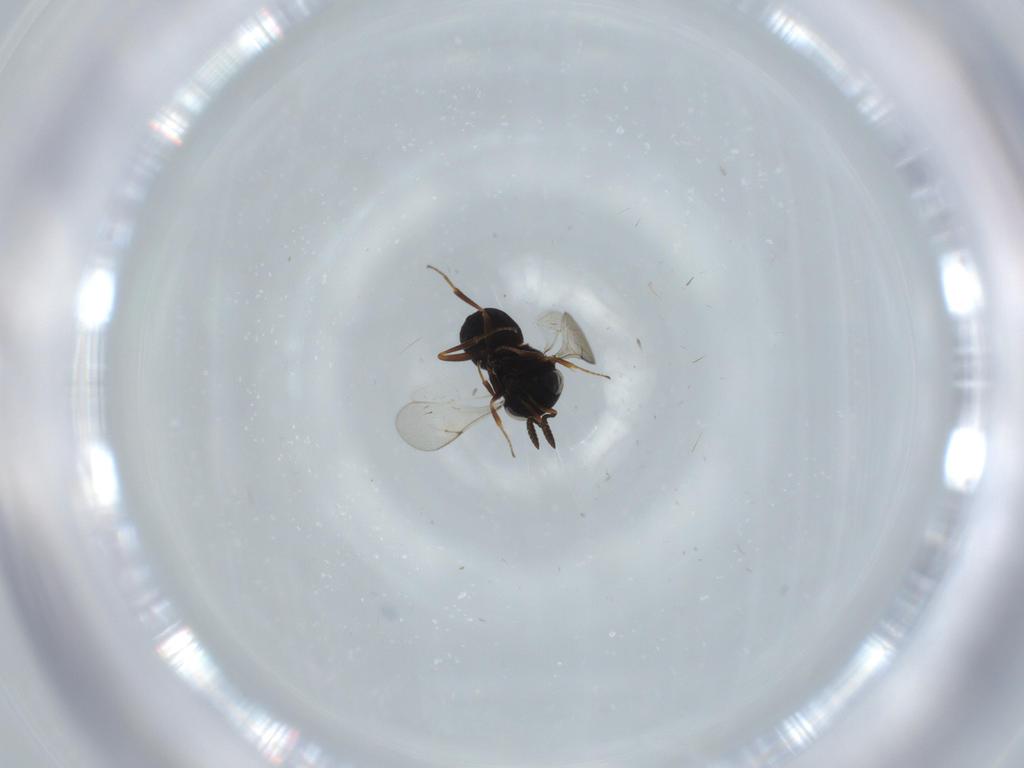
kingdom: Animalia
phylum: Arthropoda
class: Insecta
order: Hymenoptera
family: Scelionidae
